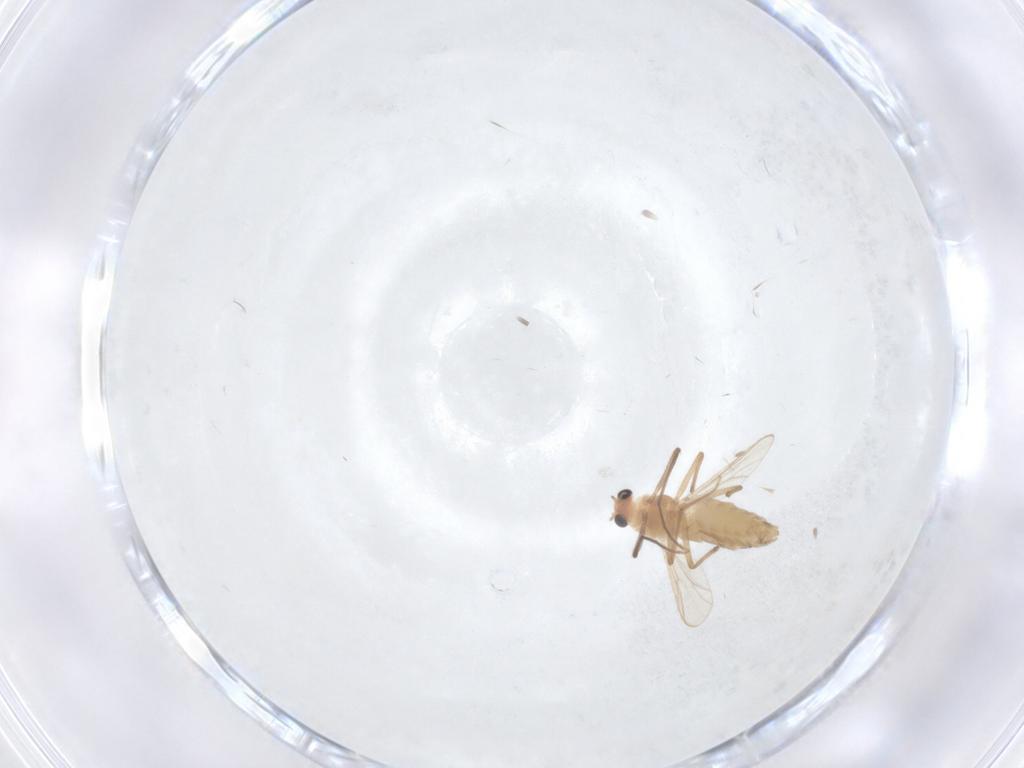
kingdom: Animalia
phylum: Arthropoda
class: Insecta
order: Diptera
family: Chironomidae
